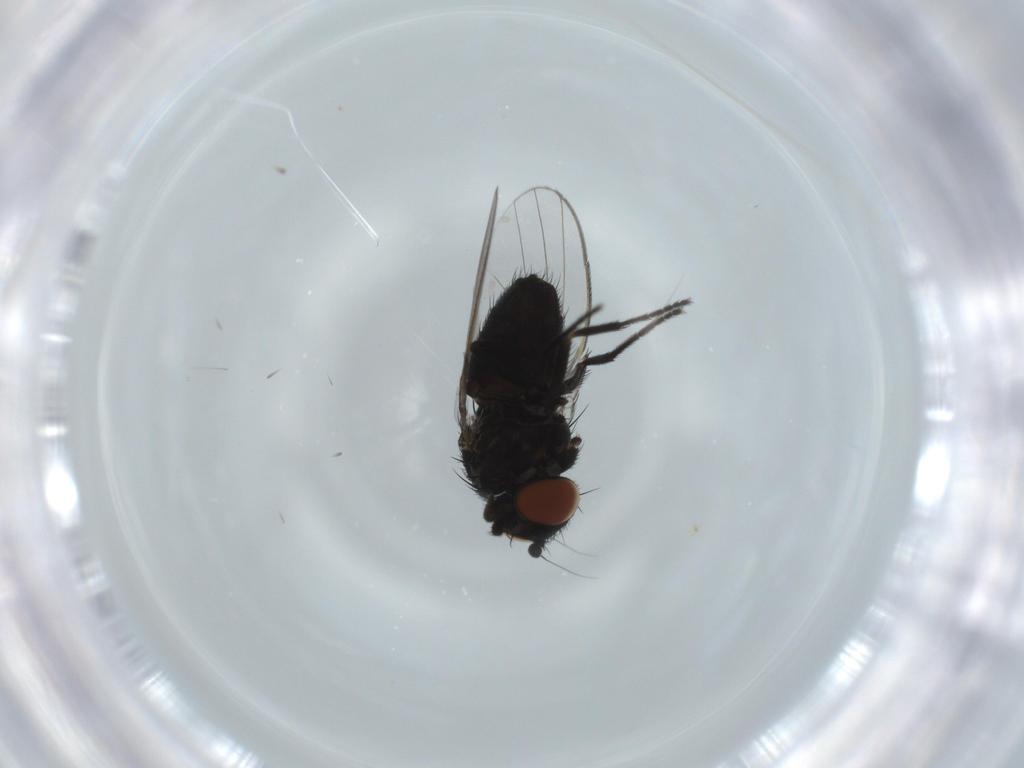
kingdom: Animalia
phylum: Arthropoda
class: Insecta
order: Diptera
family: Milichiidae
